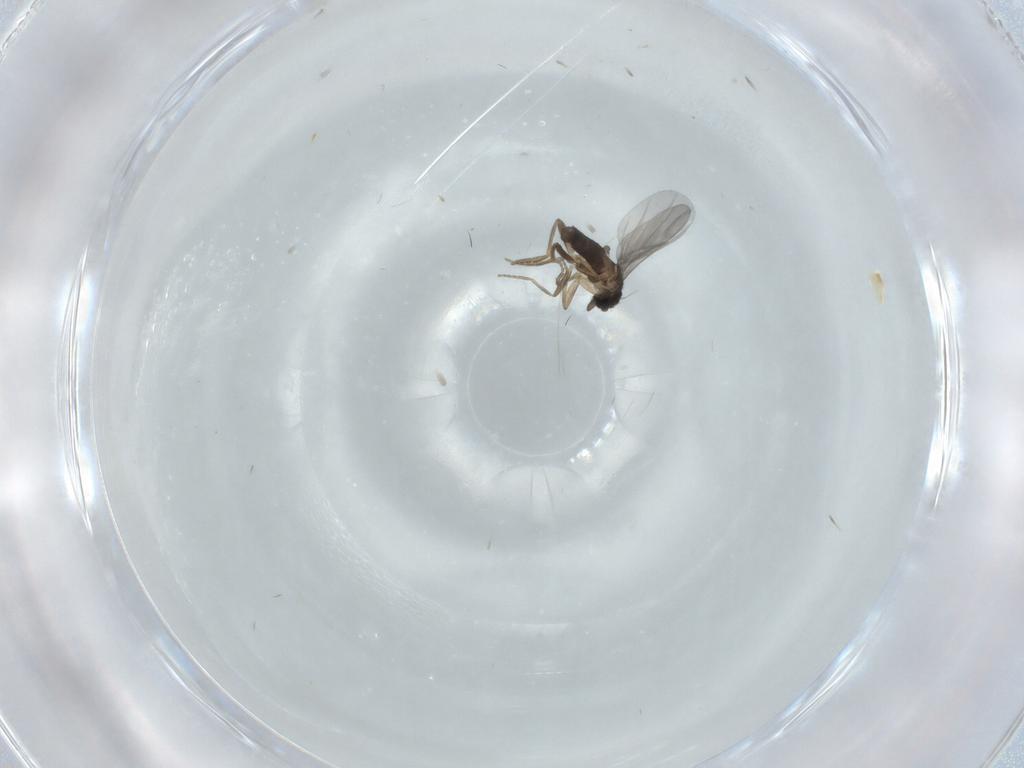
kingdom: Animalia
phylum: Arthropoda
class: Insecta
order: Diptera
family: Mycetophilidae
